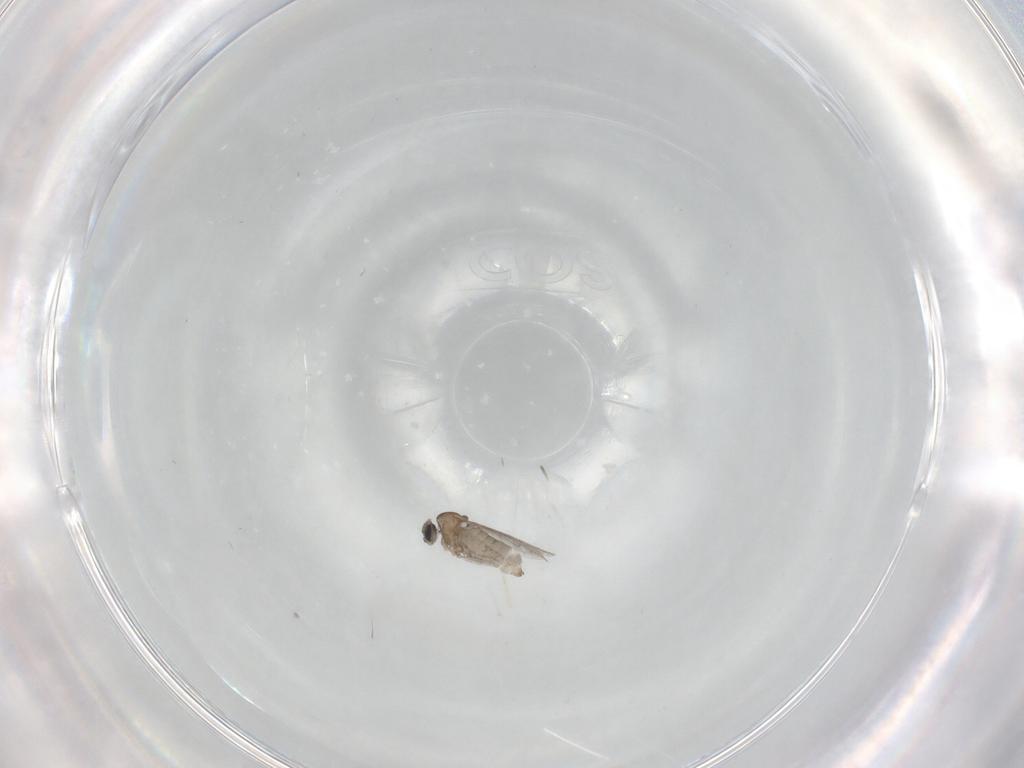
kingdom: Animalia
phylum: Arthropoda
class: Insecta
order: Diptera
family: Cecidomyiidae
